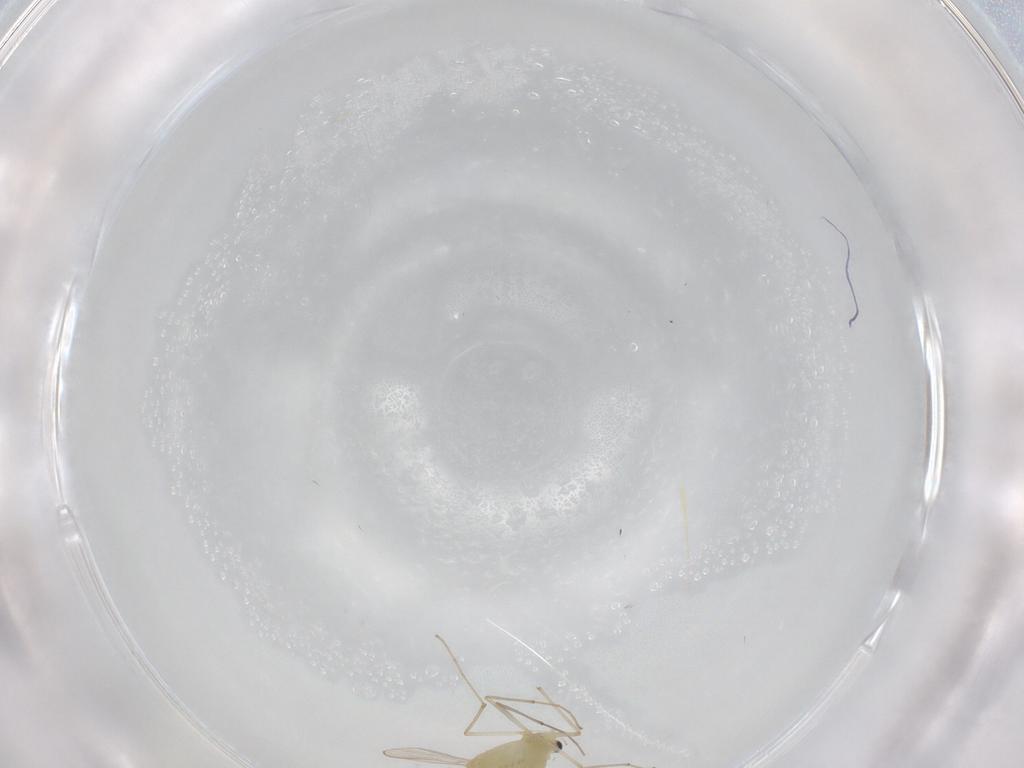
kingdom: Animalia
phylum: Arthropoda
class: Insecta
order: Diptera
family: Chironomidae
